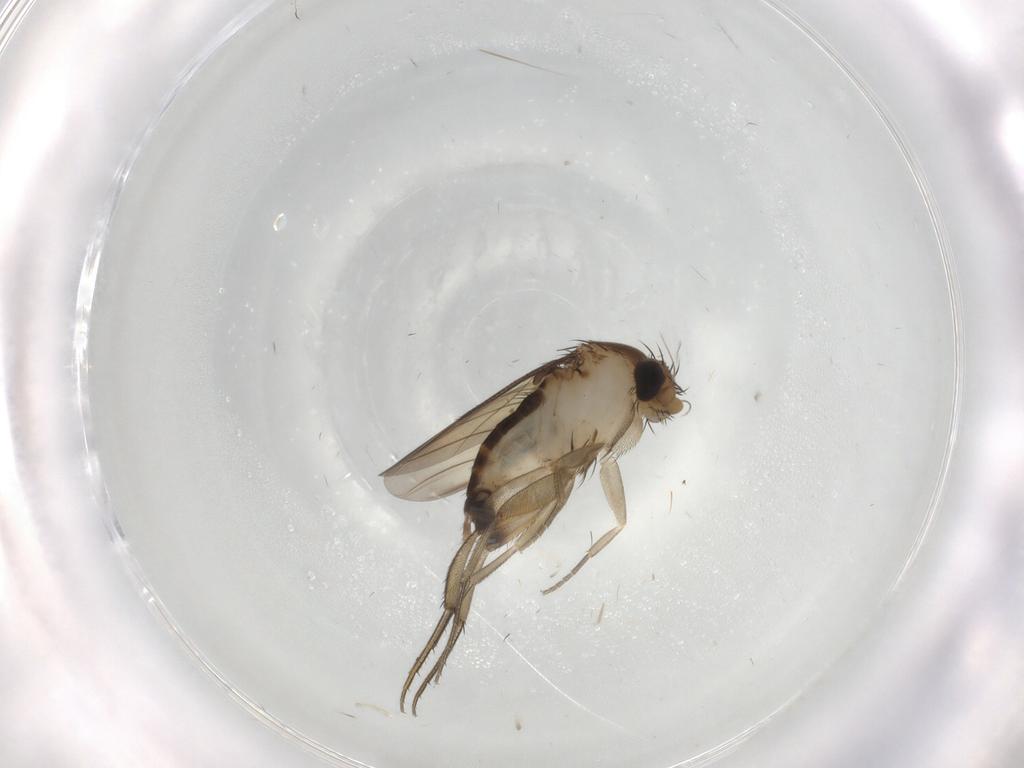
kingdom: Animalia
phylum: Arthropoda
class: Insecta
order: Diptera
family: Phoridae
